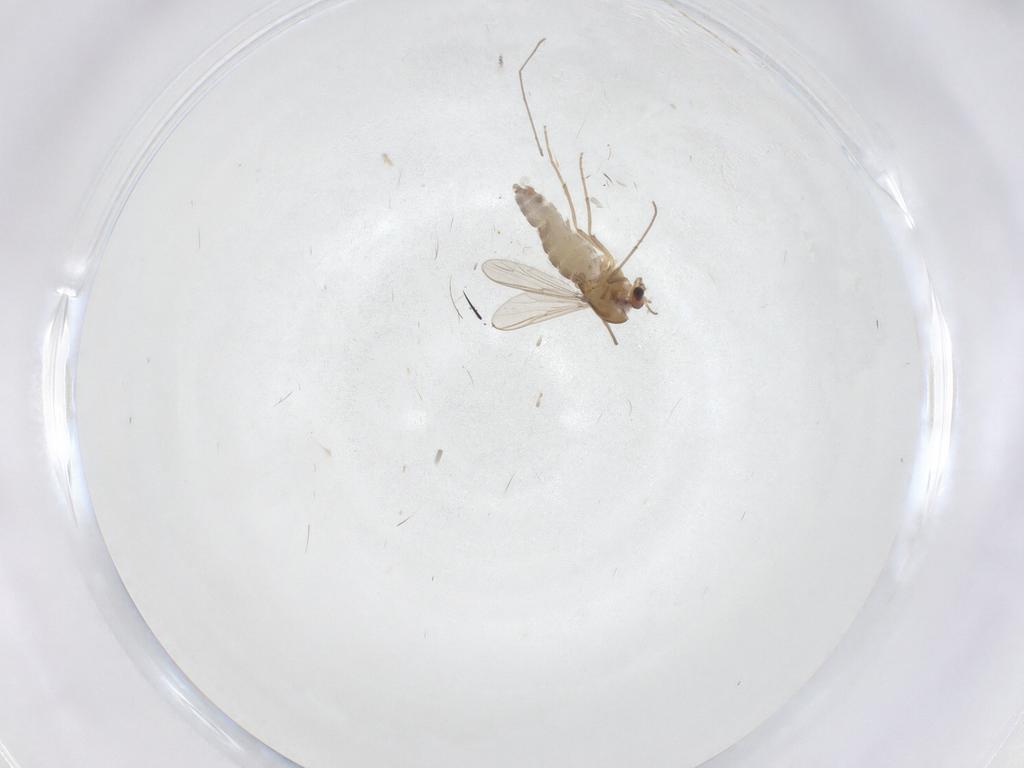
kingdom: Animalia
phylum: Arthropoda
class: Insecta
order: Diptera
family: Chironomidae
